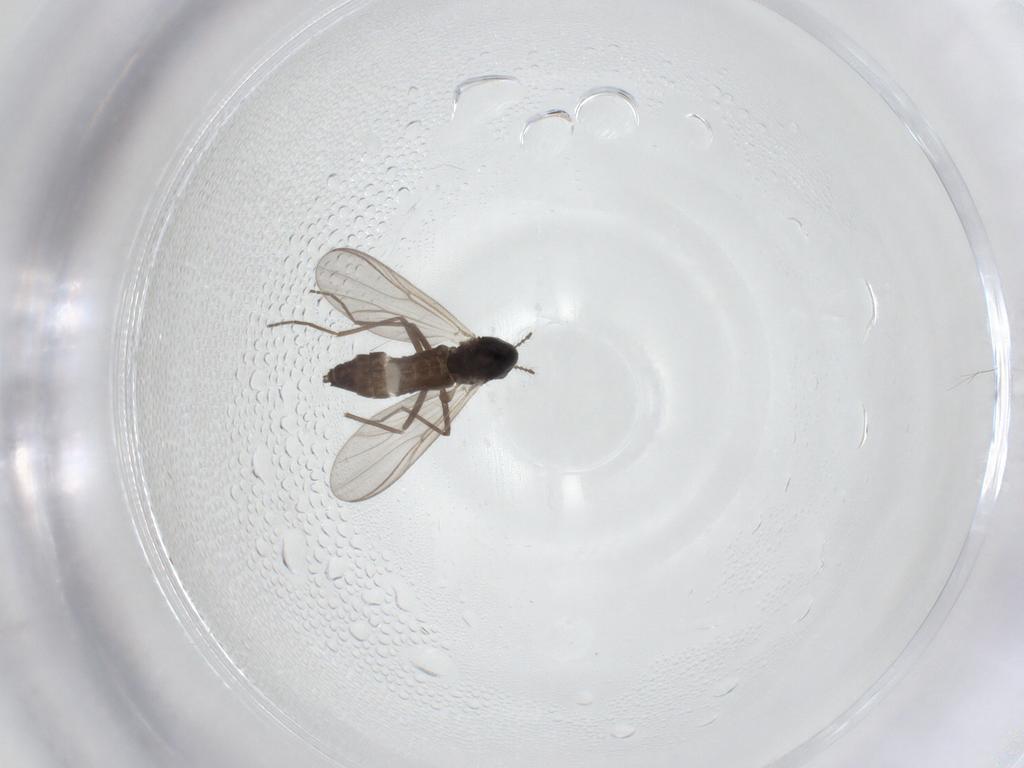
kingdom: Animalia
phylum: Arthropoda
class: Insecta
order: Diptera
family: Chironomidae
